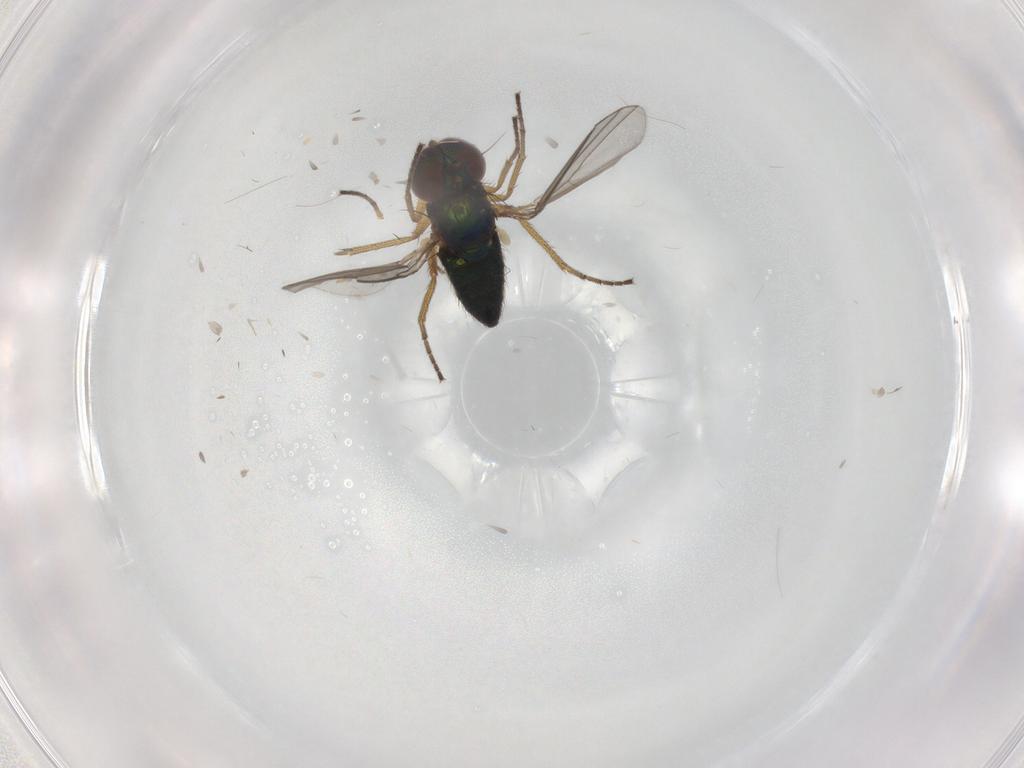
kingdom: Animalia
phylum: Arthropoda
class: Insecta
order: Diptera
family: Dolichopodidae
